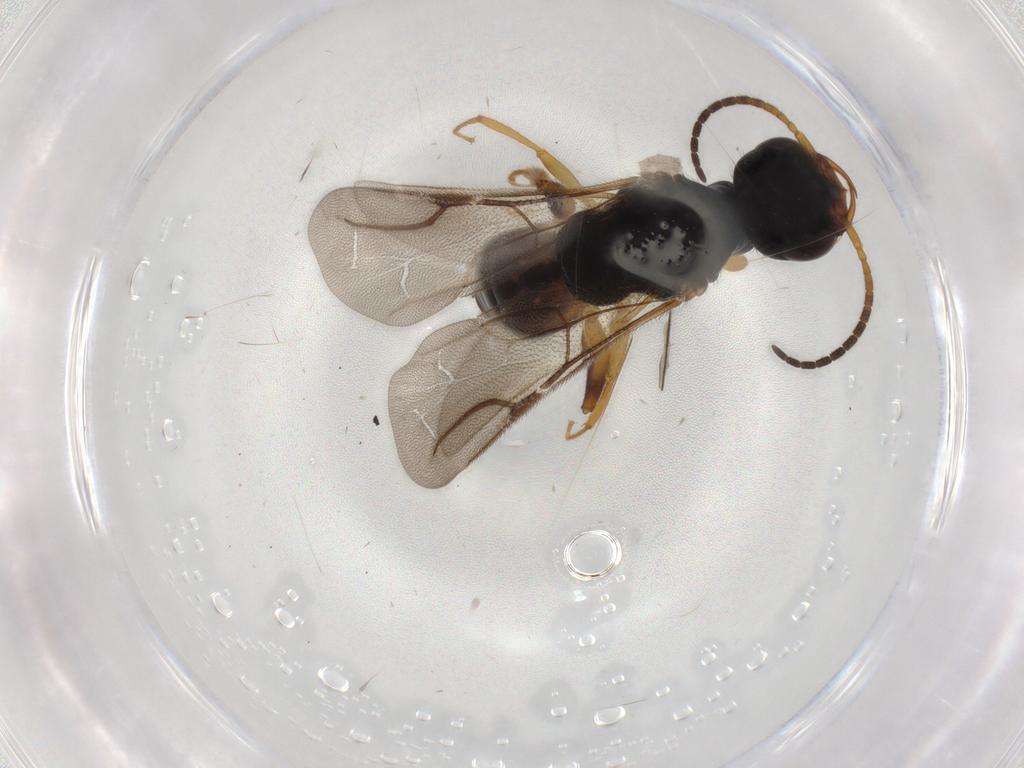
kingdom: Animalia
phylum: Arthropoda
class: Insecta
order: Hymenoptera
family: Bethylidae
